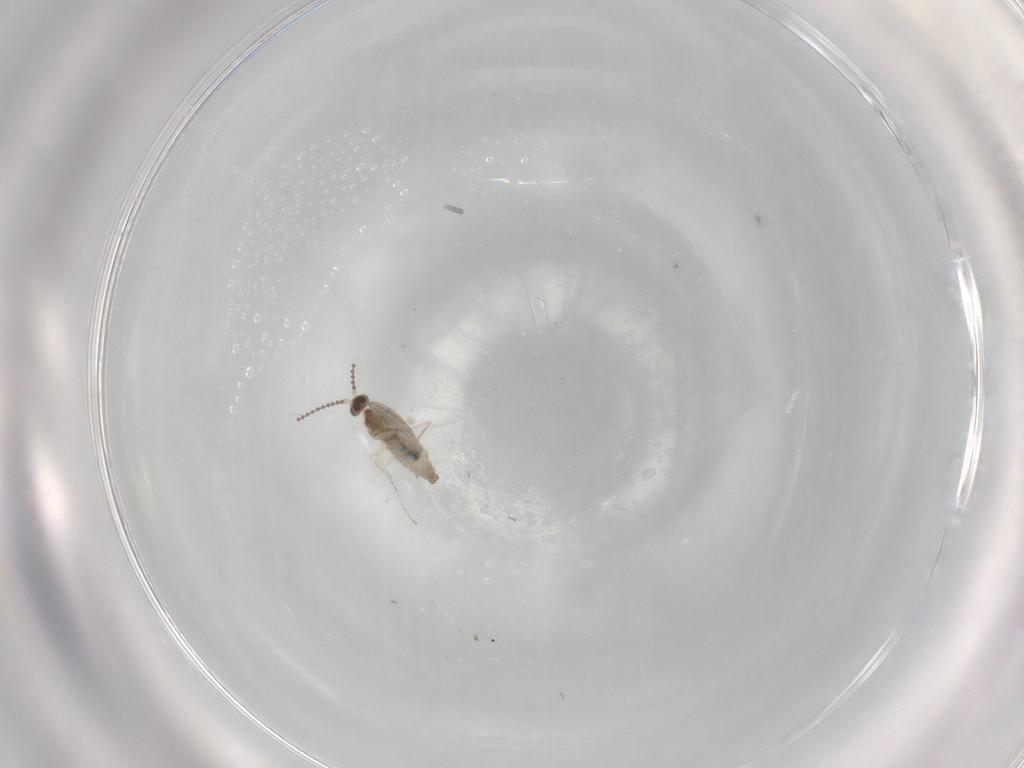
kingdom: Animalia
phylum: Arthropoda
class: Insecta
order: Diptera
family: Cecidomyiidae
